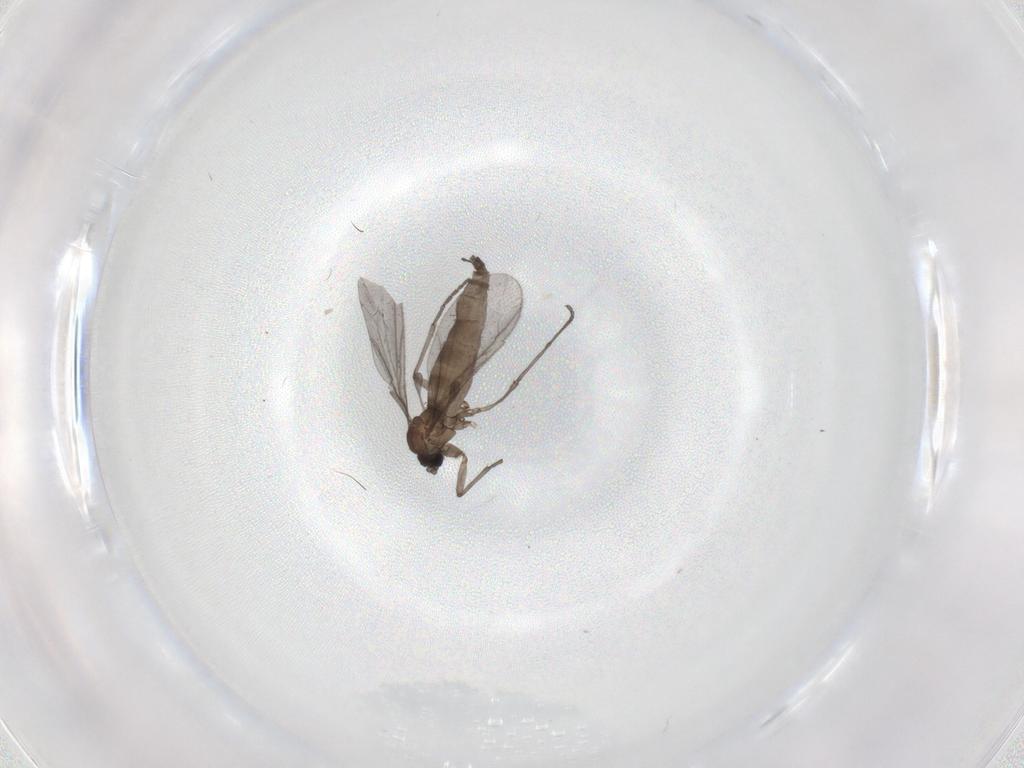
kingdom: Animalia
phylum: Arthropoda
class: Insecta
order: Diptera
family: Sciaridae
